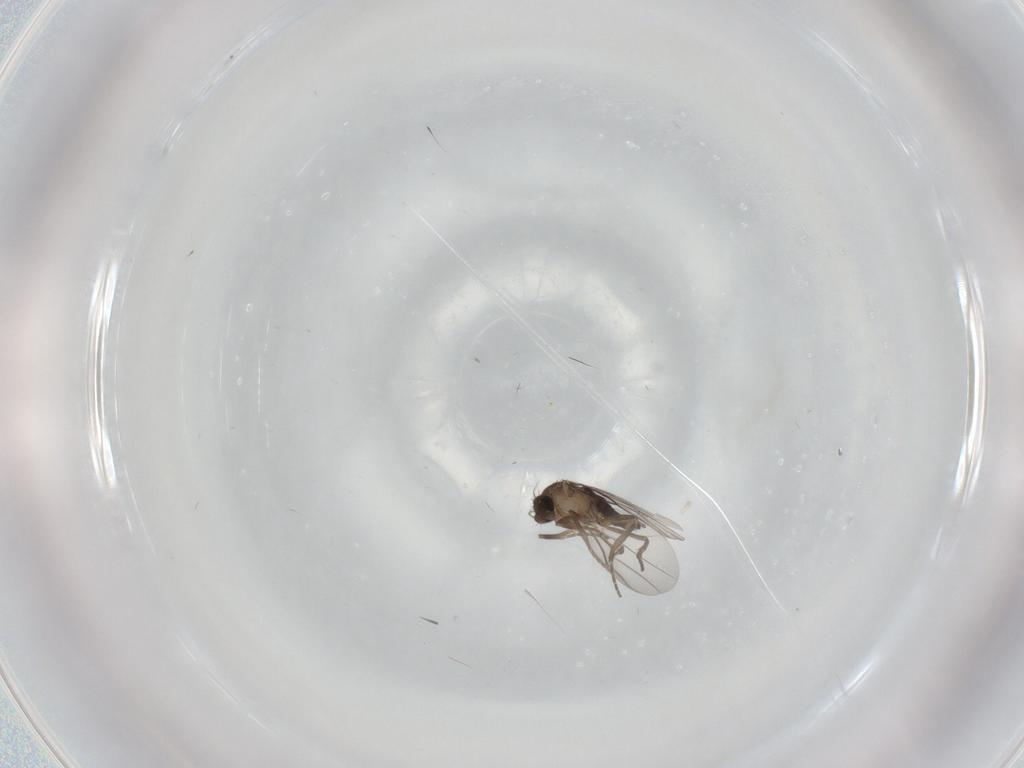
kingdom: Animalia
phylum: Arthropoda
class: Insecta
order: Diptera
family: Cecidomyiidae
